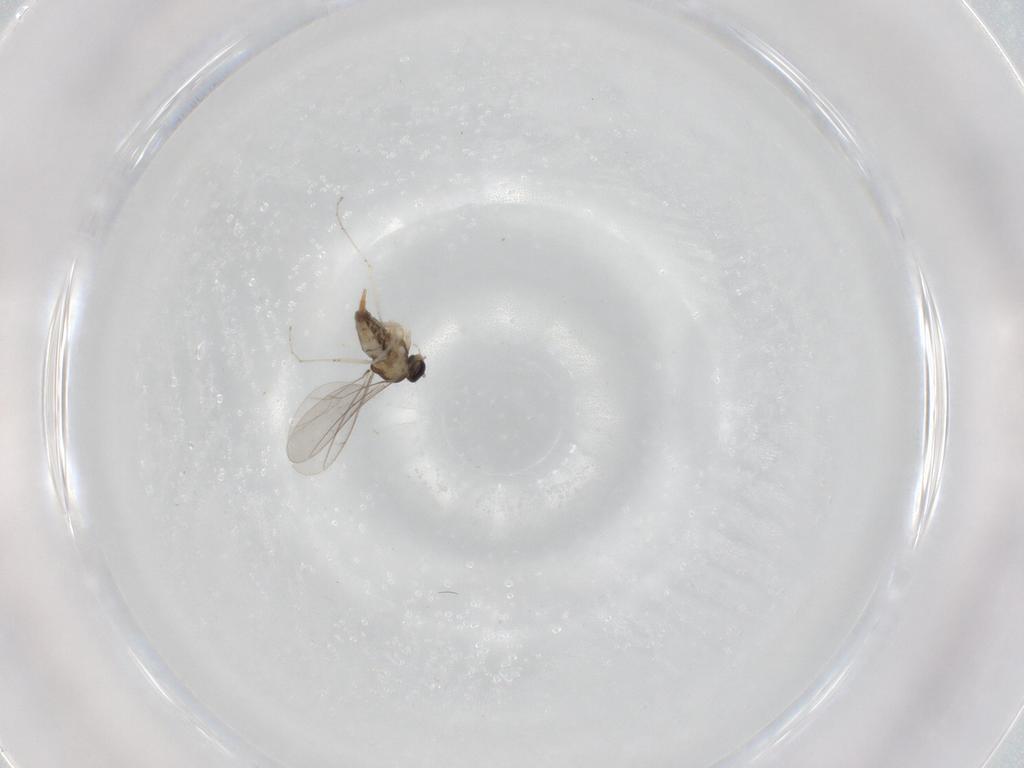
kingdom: Animalia
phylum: Arthropoda
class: Insecta
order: Diptera
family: Cecidomyiidae
